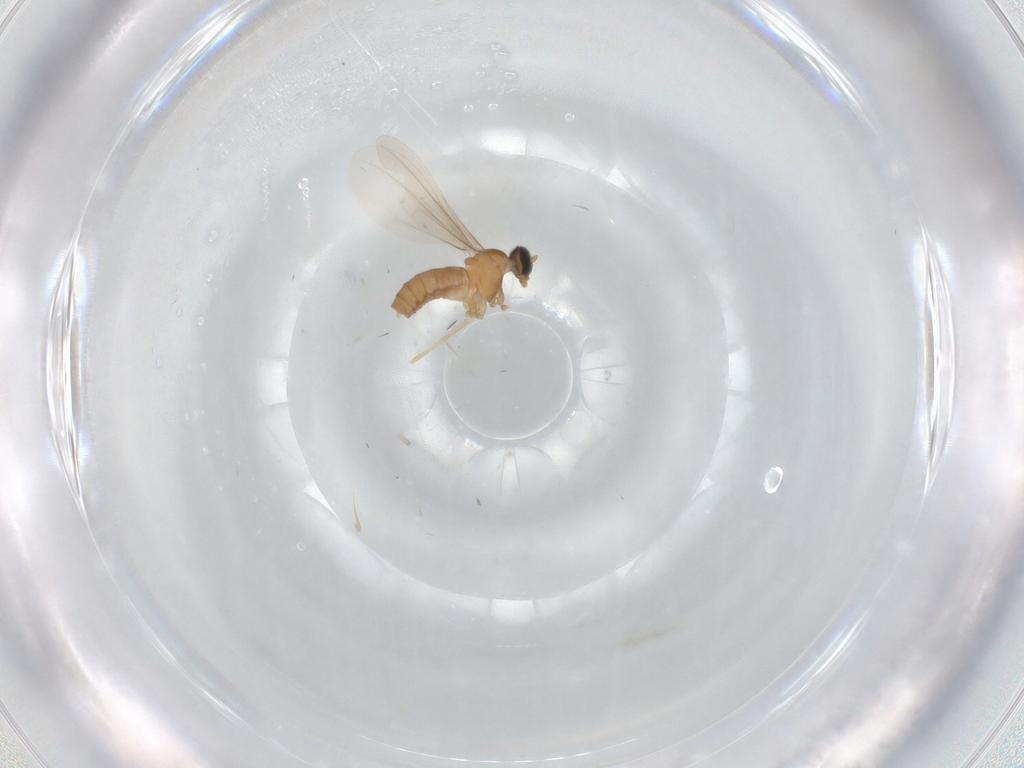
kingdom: Animalia
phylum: Arthropoda
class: Insecta
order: Diptera
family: Cecidomyiidae
